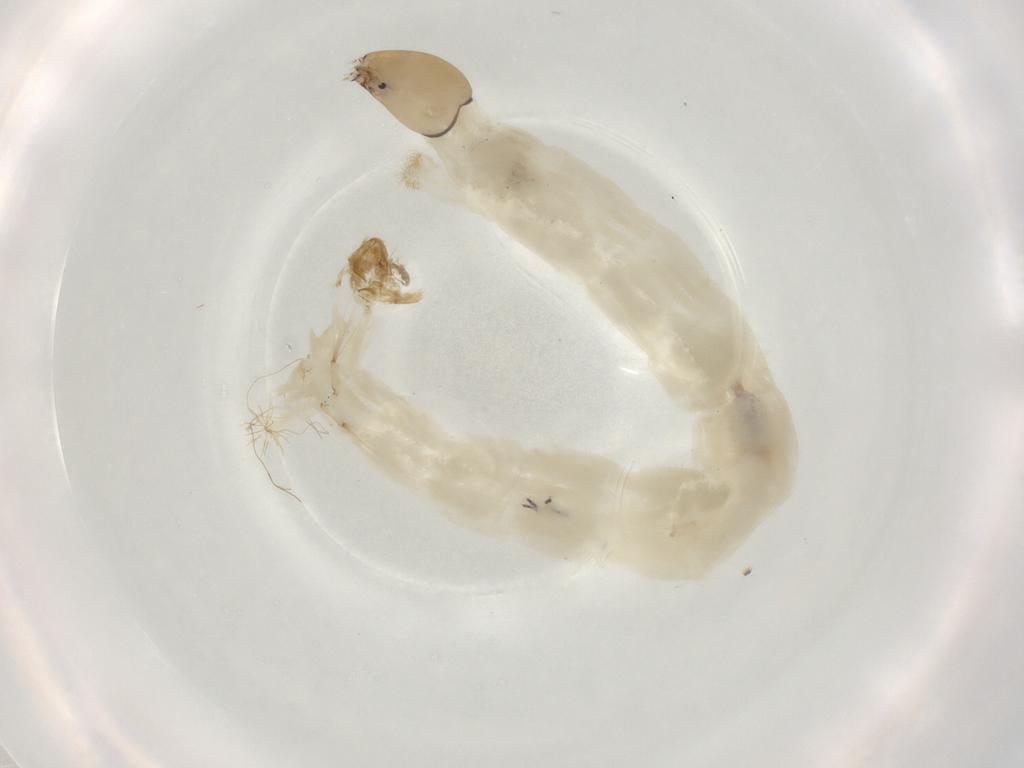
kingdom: Animalia
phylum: Arthropoda
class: Insecta
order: Diptera
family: Chironomidae
